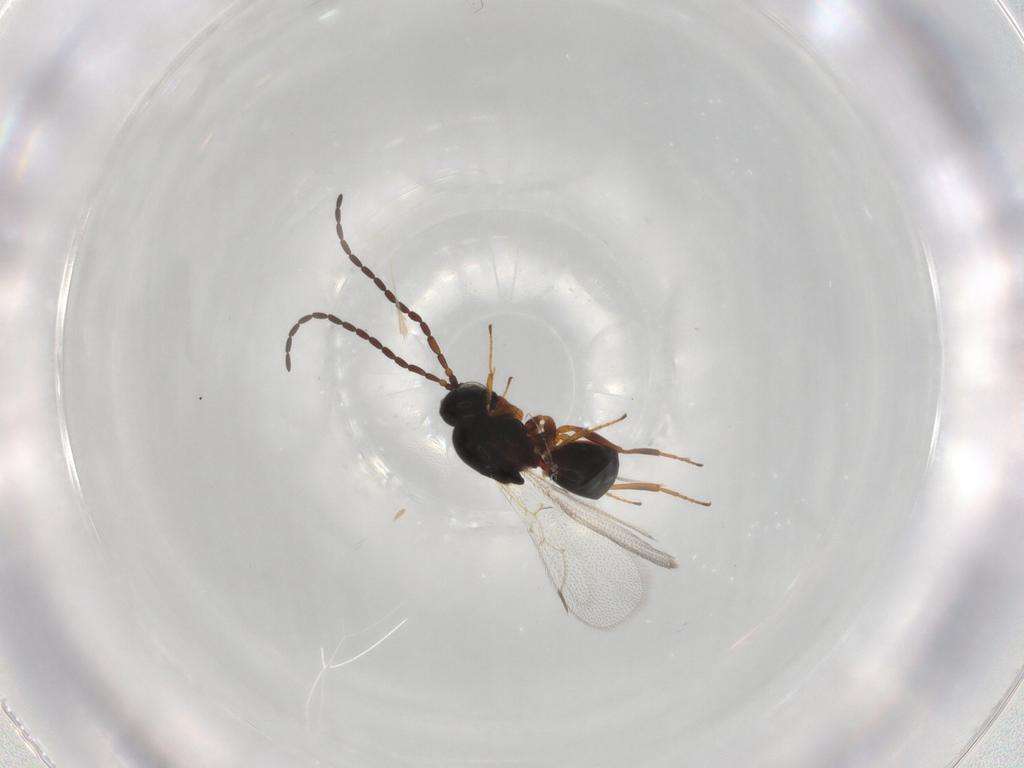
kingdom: Animalia
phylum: Arthropoda
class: Insecta
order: Hymenoptera
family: Figitidae
